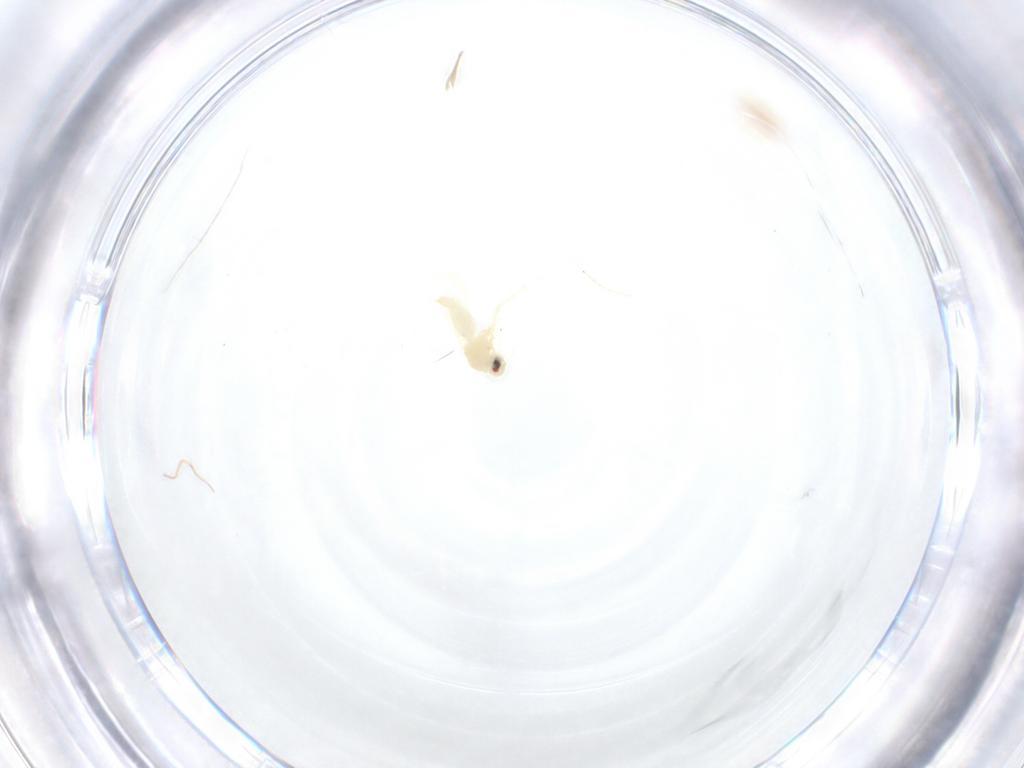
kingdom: Animalia
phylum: Arthropoda
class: Insecta
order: Hemiptera
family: Aleyrodidae
